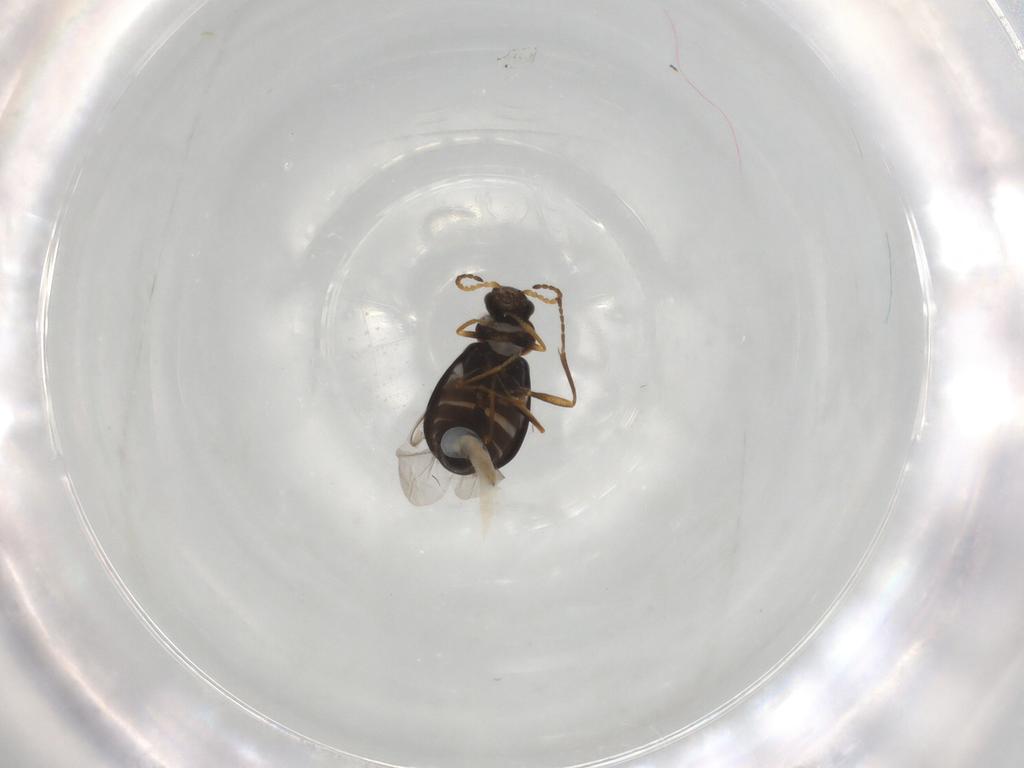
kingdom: Animalia
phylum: Arthropoda
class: Insecta
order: Coleoptera
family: Melyridae
